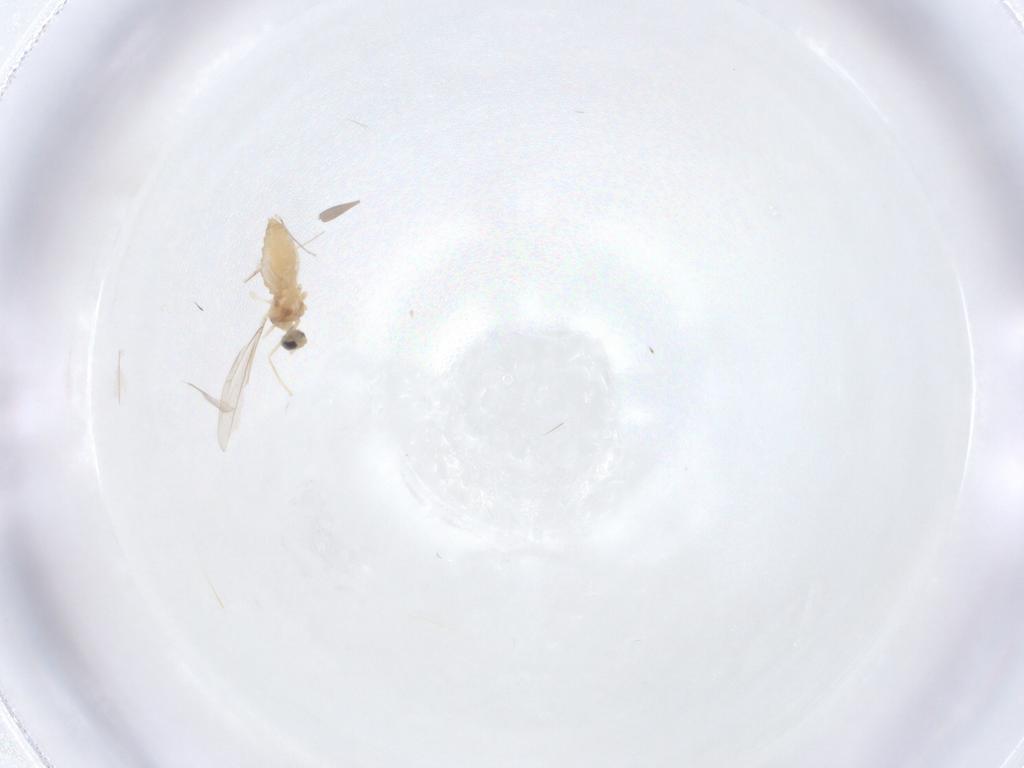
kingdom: Animalia
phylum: Arthropoda
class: Insecta
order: Diptera
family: Cecidomyiidae
